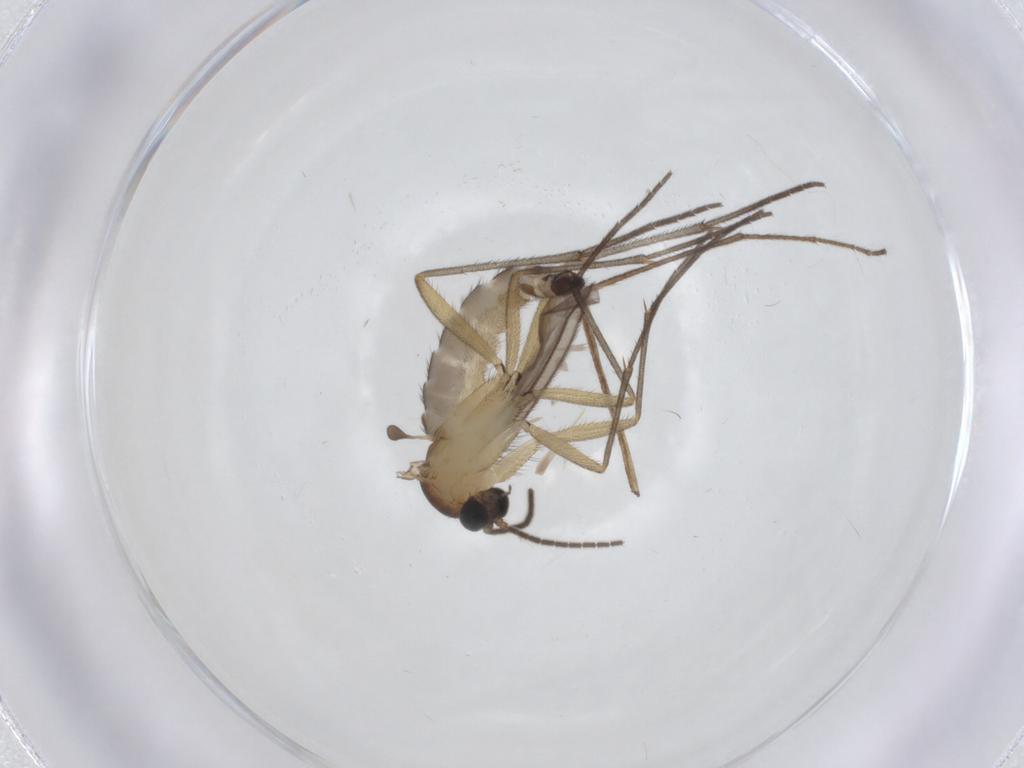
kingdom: Animalia
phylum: Arthropoda
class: Insecta
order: Diptera
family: Sciaridae
